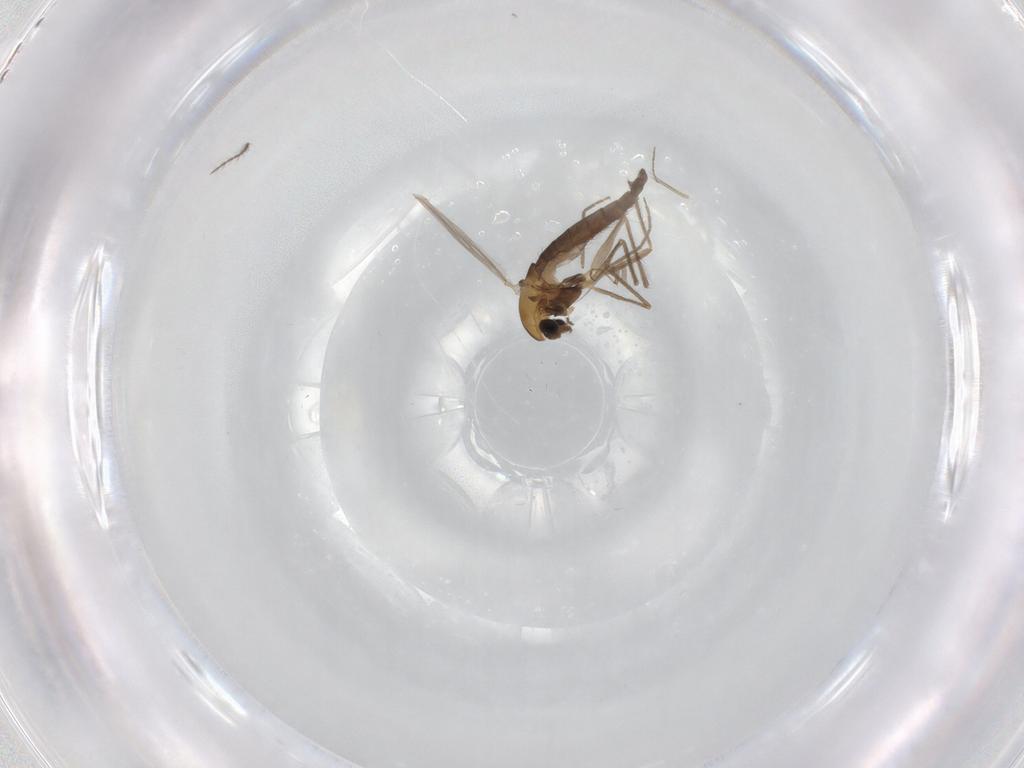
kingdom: Animalia
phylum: Arthropoda
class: Insecta
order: Diptera
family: Chironomidae
